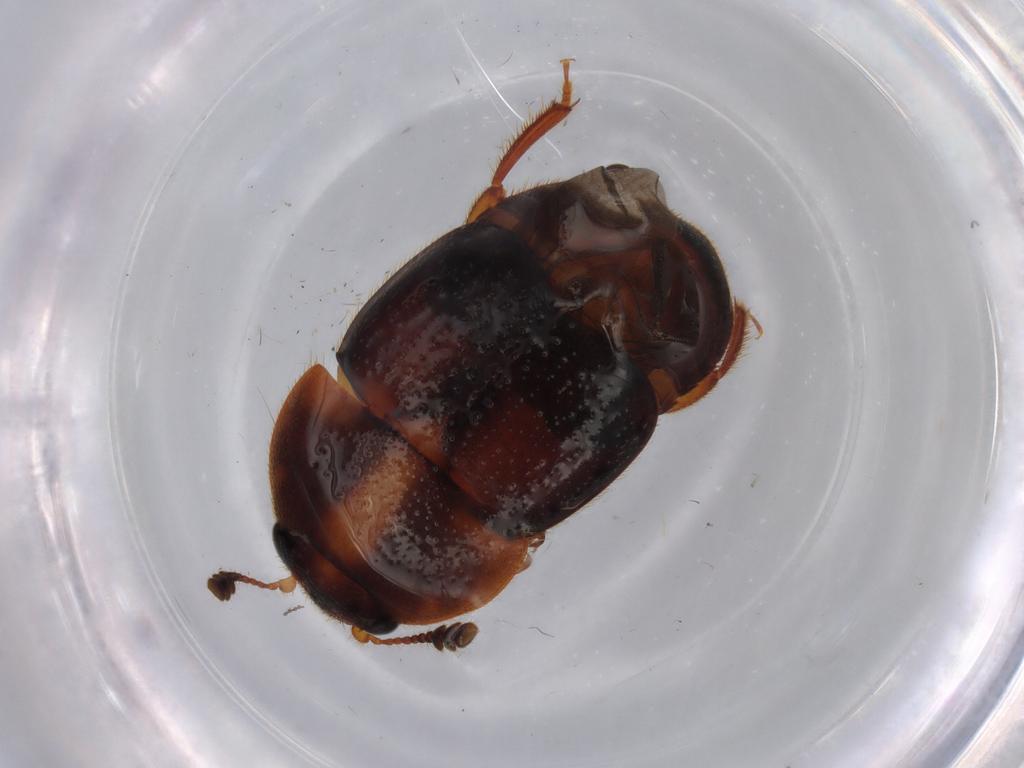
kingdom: Animalia
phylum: Arthropoda
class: Insecta
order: Coleoptera
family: Nitidulidae
